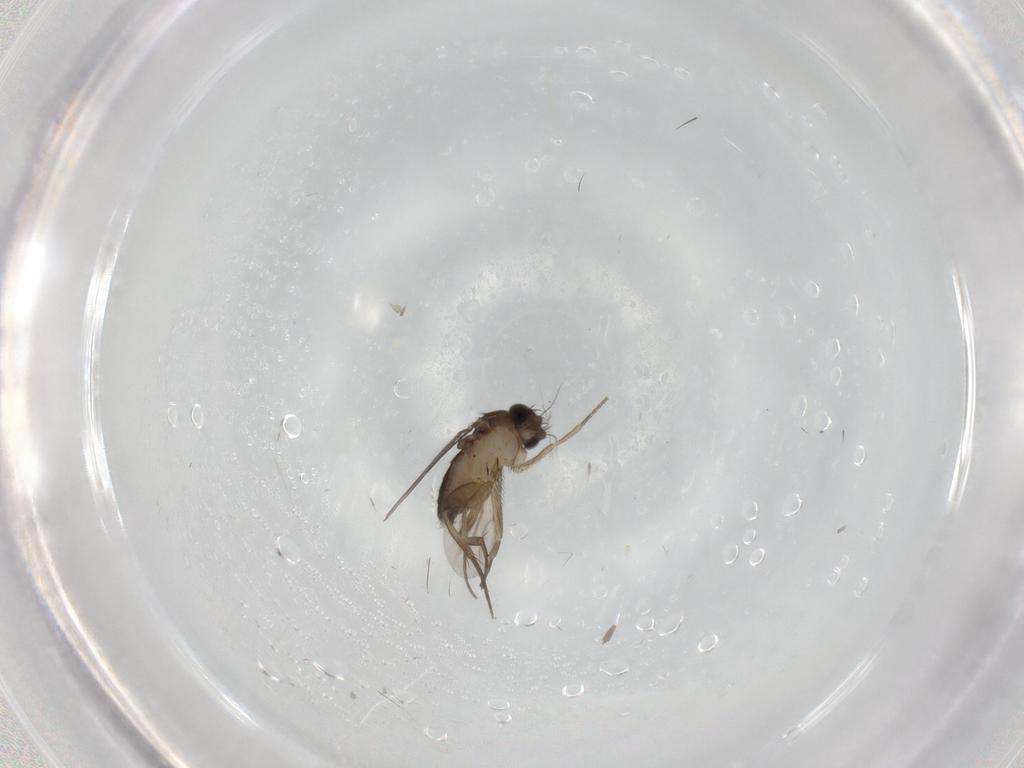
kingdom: Animalia
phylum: Arthropoda
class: Insecta
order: Diptera
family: Phoridae
